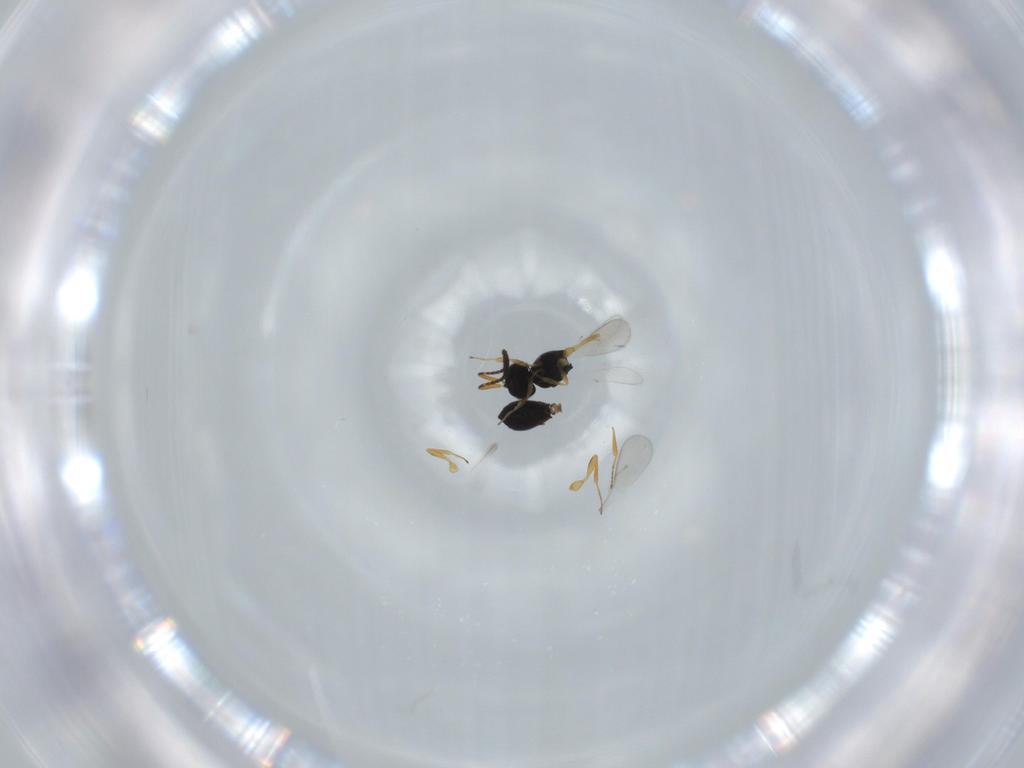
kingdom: Animalia
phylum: Arthropoda
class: Insecta
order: Hymenoptera
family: Scelionidae
